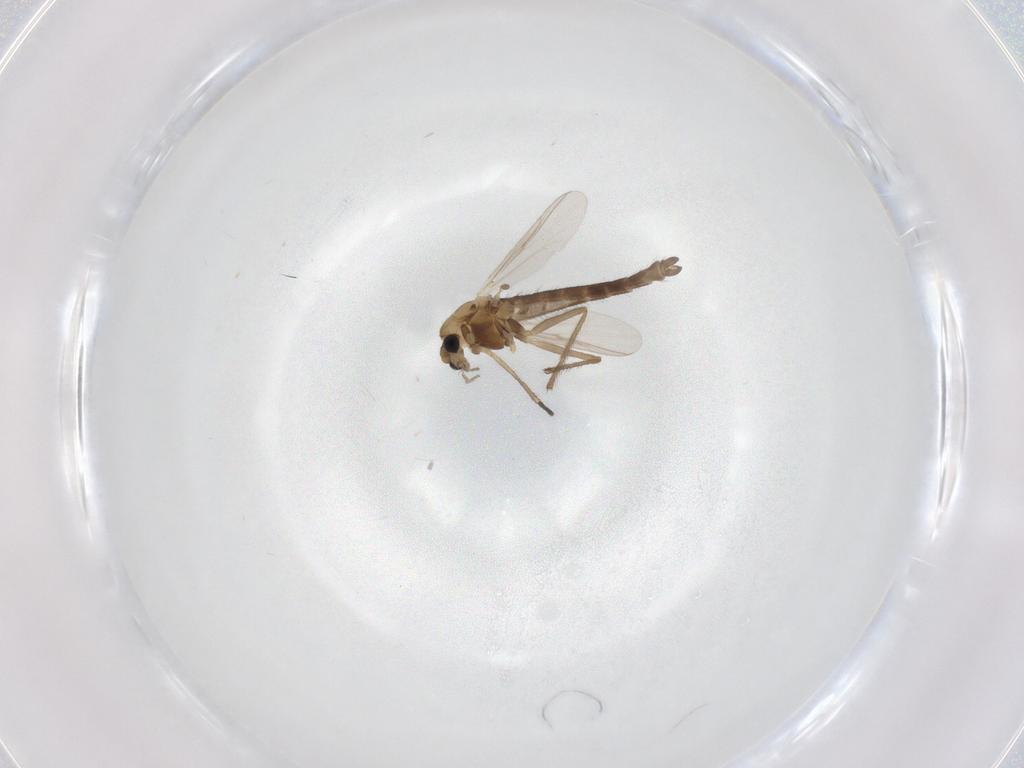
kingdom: Animalia
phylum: Arthropoda
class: Insecta
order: Diptera
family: Chironomidae
